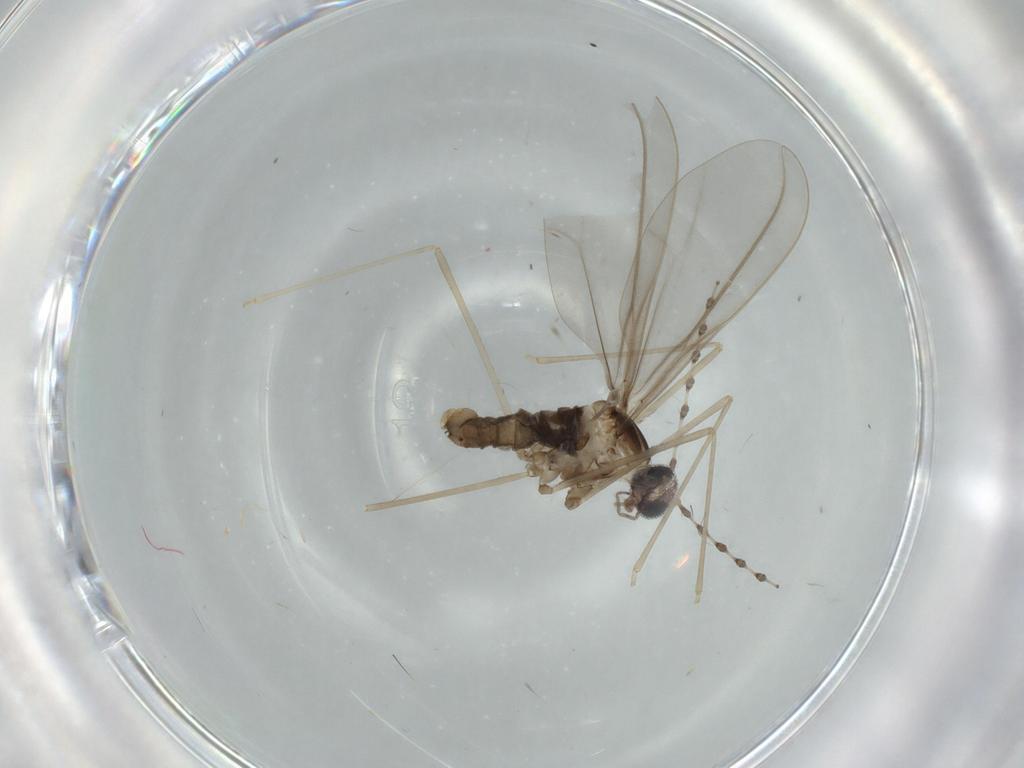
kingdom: Animalia
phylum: Arthropoda
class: Insecta
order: Diptera
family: Cecidomyiidae
